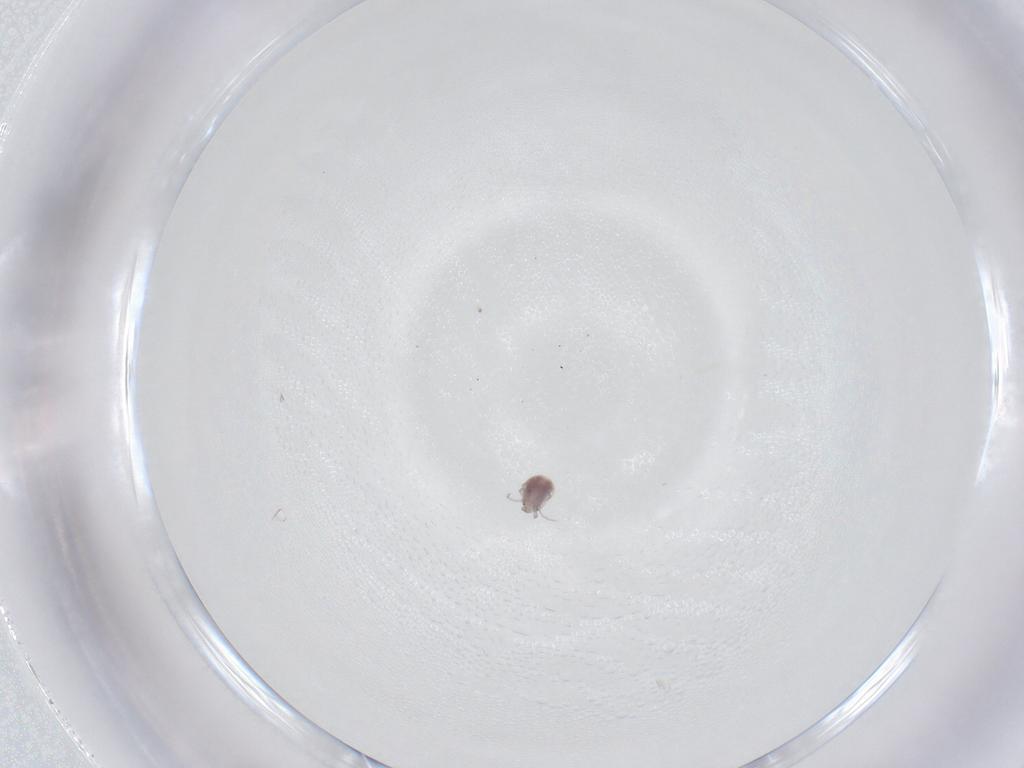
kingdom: Animalia
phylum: Arthropoda
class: Arachnida
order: Trombidiformes
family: Pionidae
